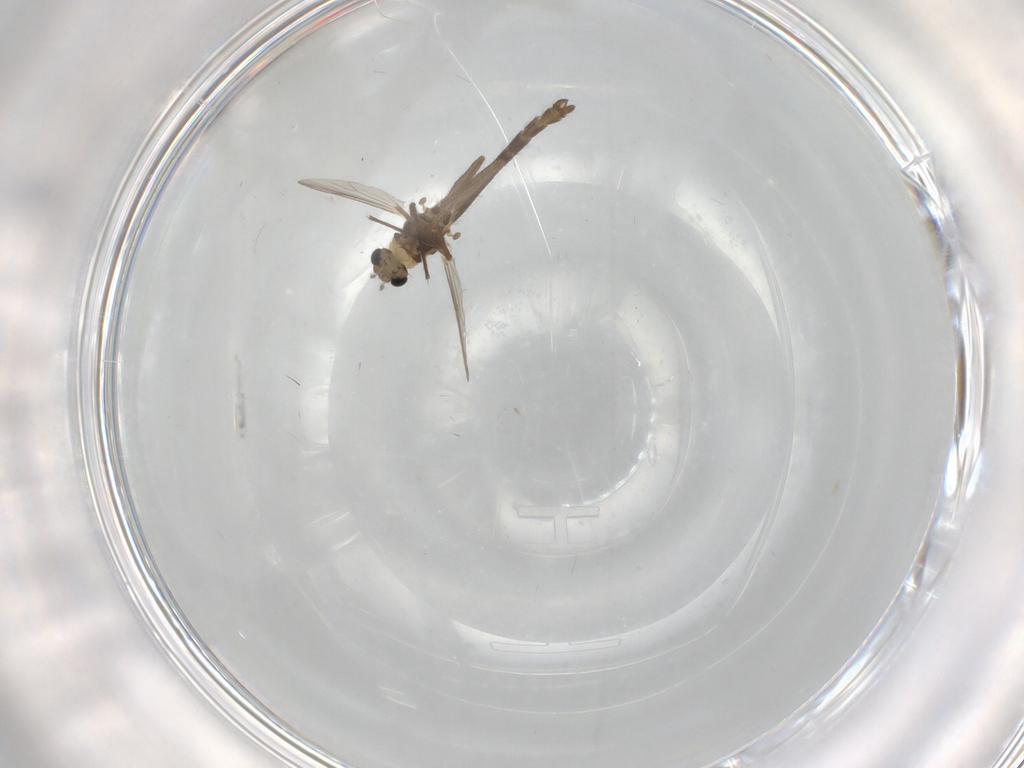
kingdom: Animalia
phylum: Arthropoda
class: Insecta
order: Diptera
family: Chironomidae
